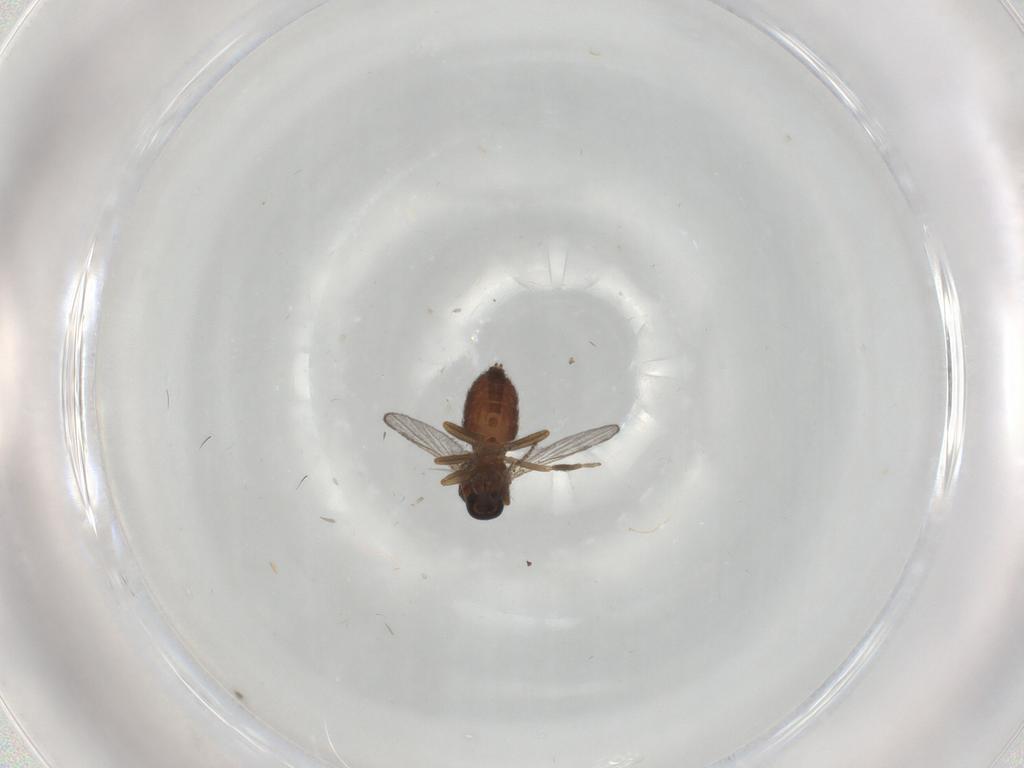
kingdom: Animalia
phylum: Arthropoda
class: Insecta
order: Diptera
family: Ceratopogonidae
